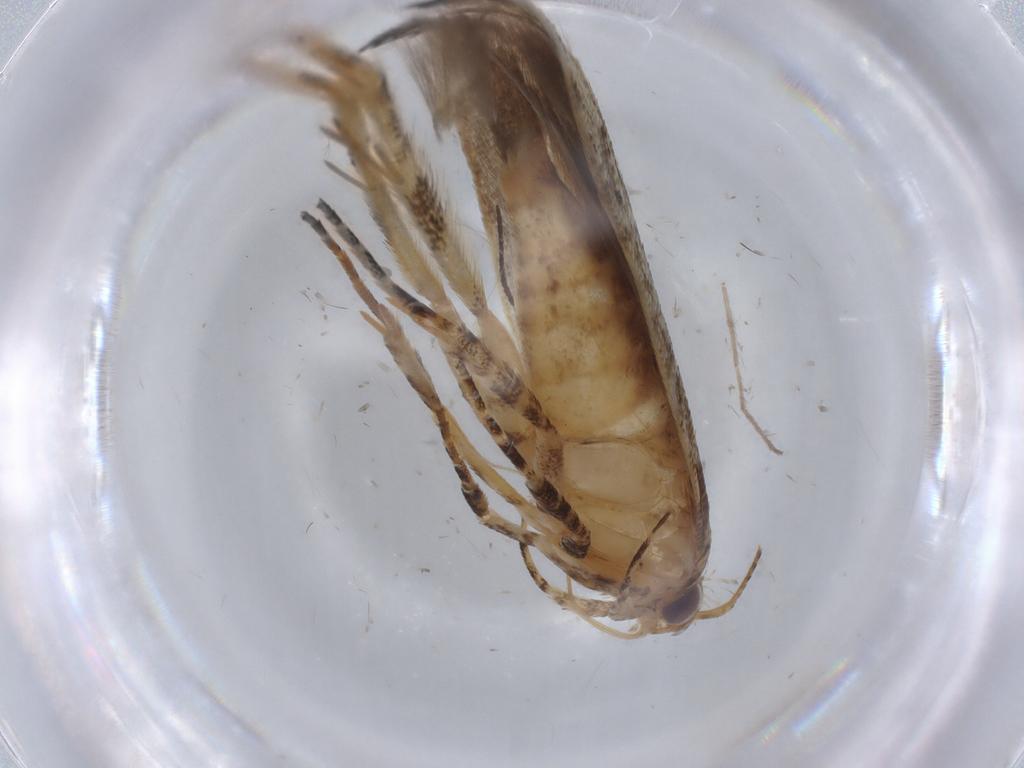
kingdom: Animalia
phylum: Arthropoda
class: Insecta
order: Lepidoptera
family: Gelechiidae
